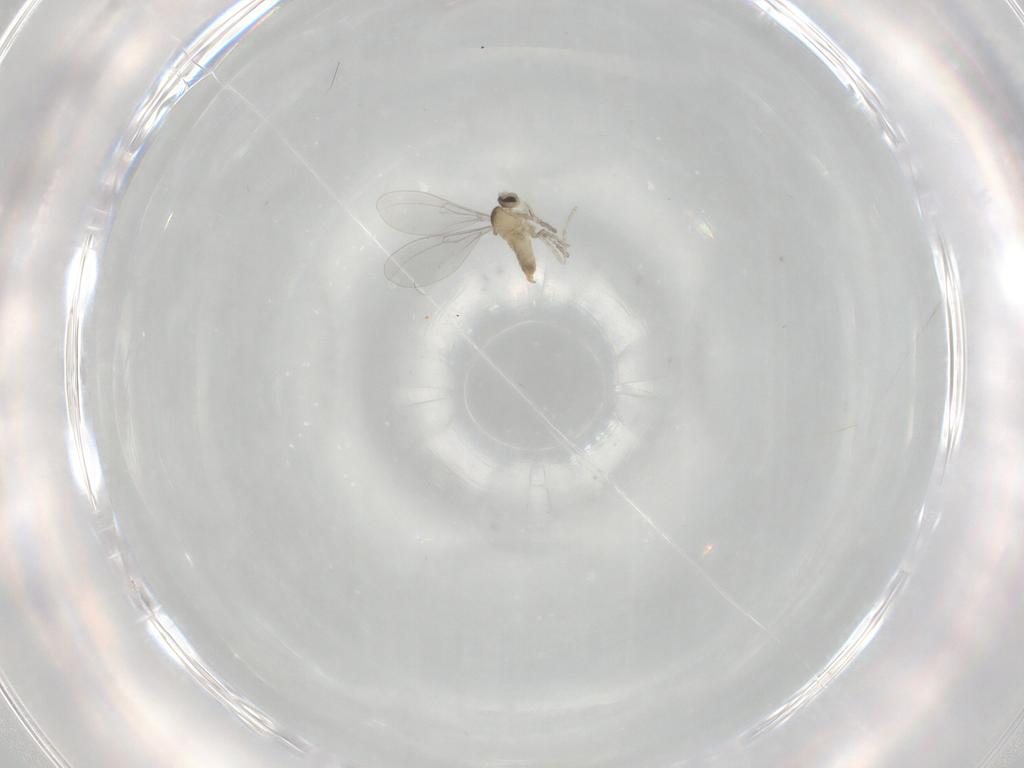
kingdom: Animalia
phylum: Arthropoda
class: Insecta
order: Diptera
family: Cecidomyiidae
